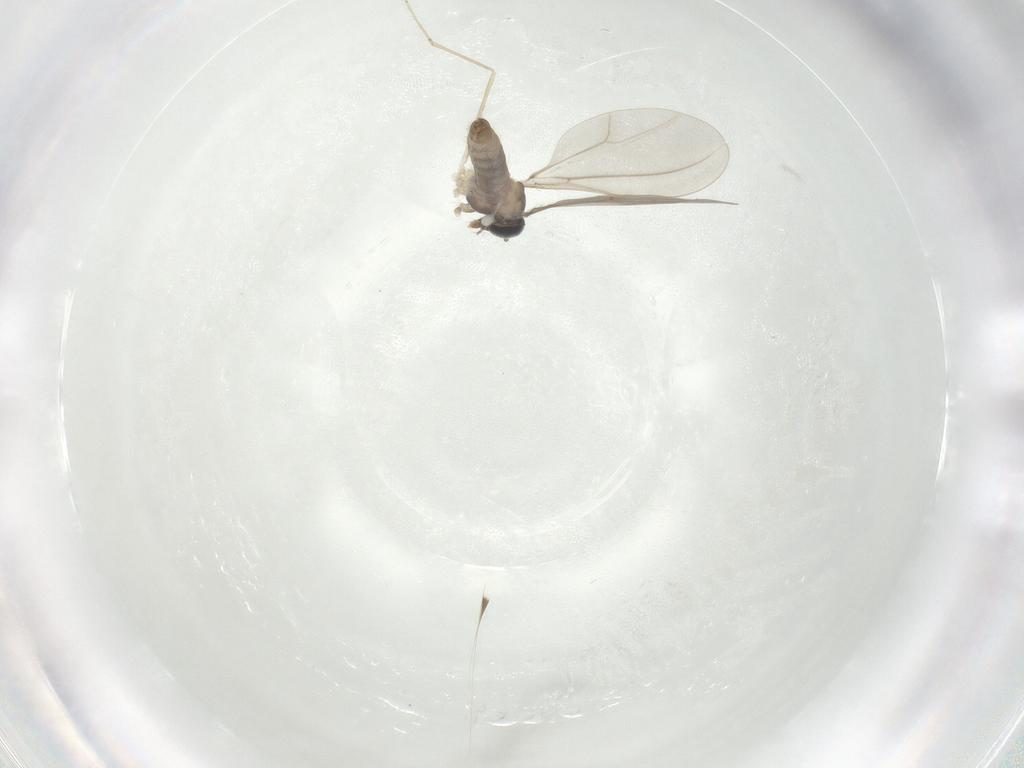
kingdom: Animalia
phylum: Arthropoda
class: Insecta
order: Diptera
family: Cecidomyiidae
